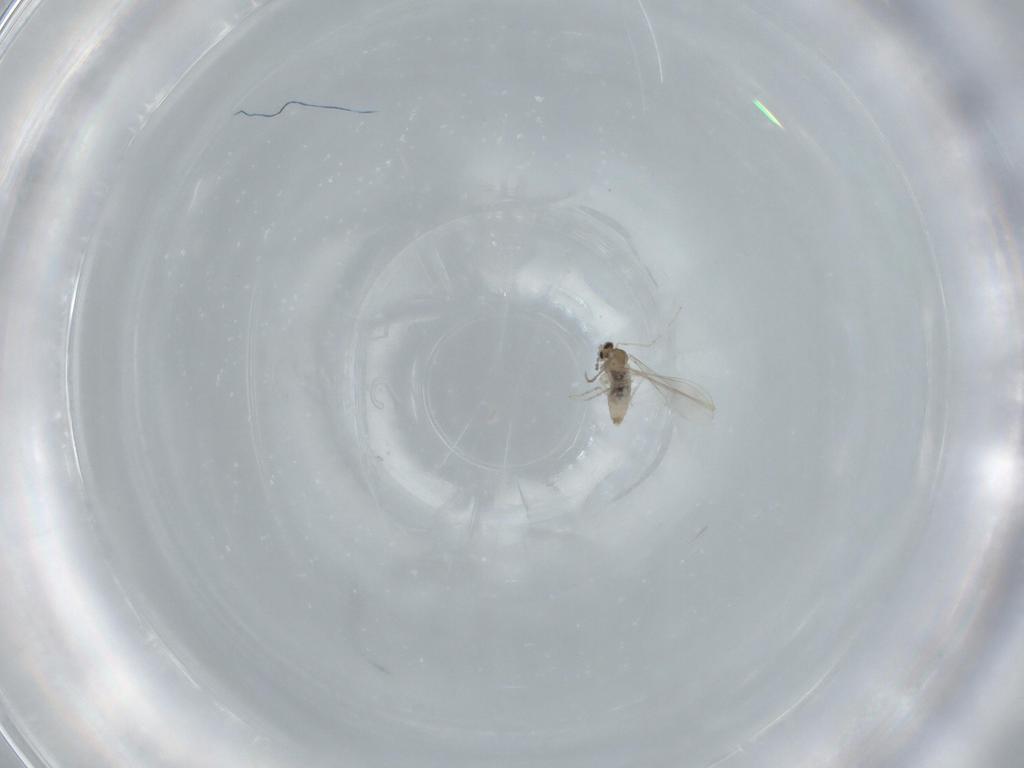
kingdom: Animalia
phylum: Arthropoda
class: Insecta
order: Diptera
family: Cecidomyiidae
